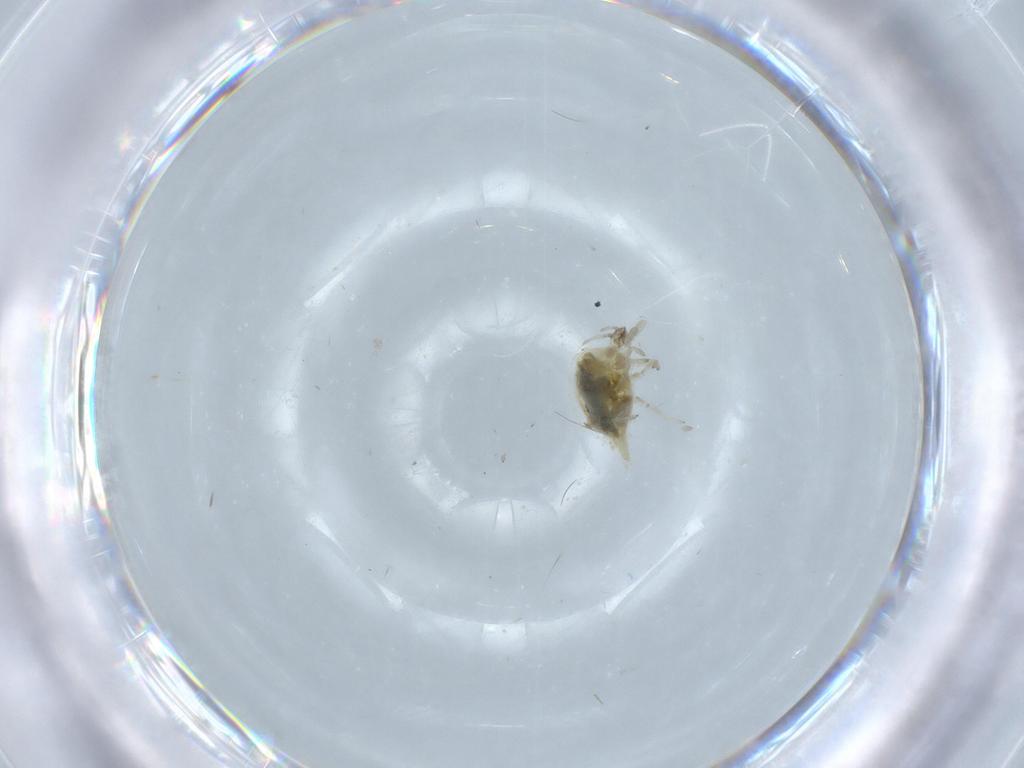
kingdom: Animalia
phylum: Arthropoda
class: Insecta
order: Neuroptera
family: Coniopterygidae
